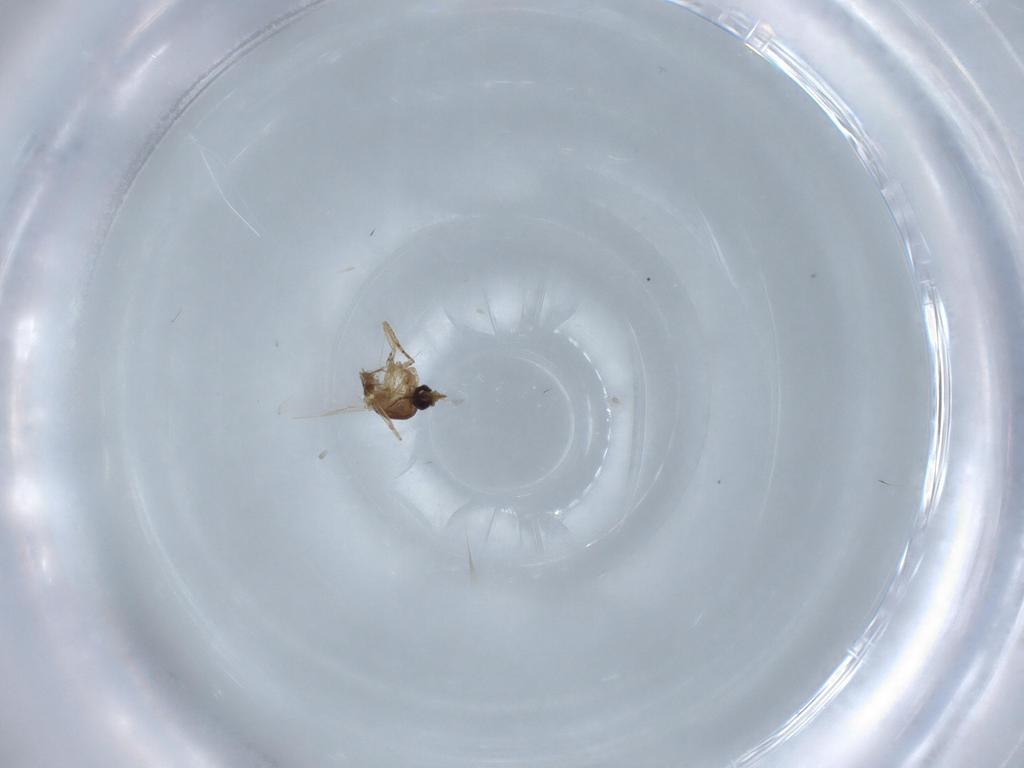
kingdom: Animalia
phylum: Arthropoda
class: Insecta
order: Diptera
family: Ceratopogonidae
